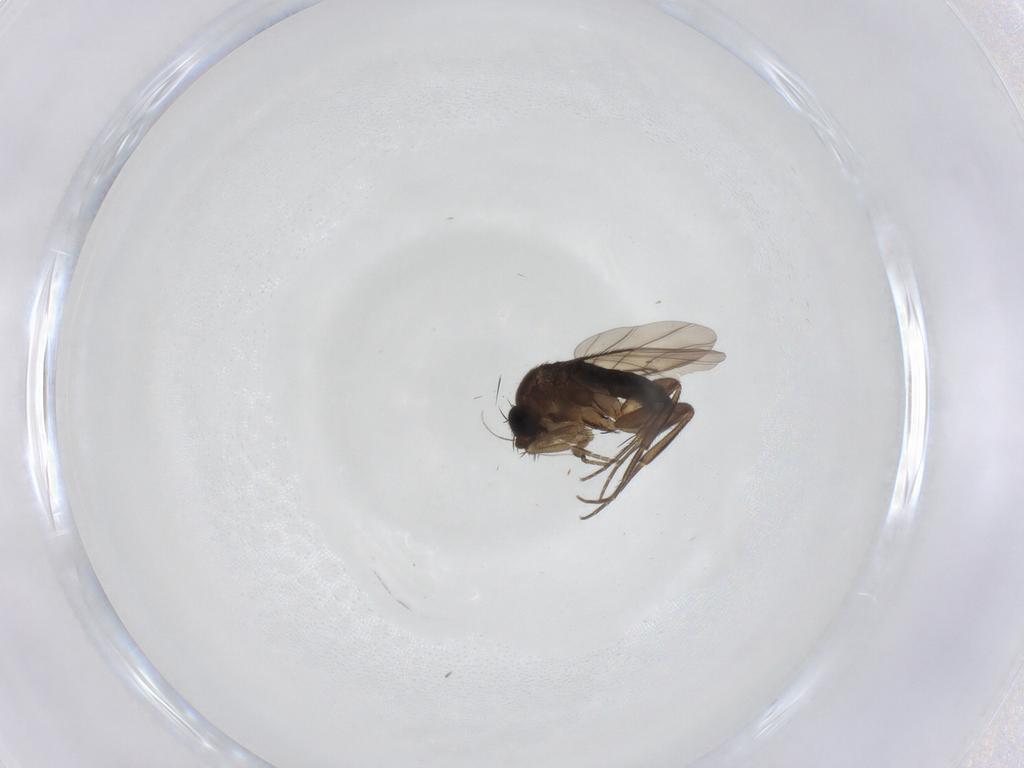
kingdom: Animalia
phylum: Arthropoda
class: Insecta
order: Diptera
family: Phoridae
